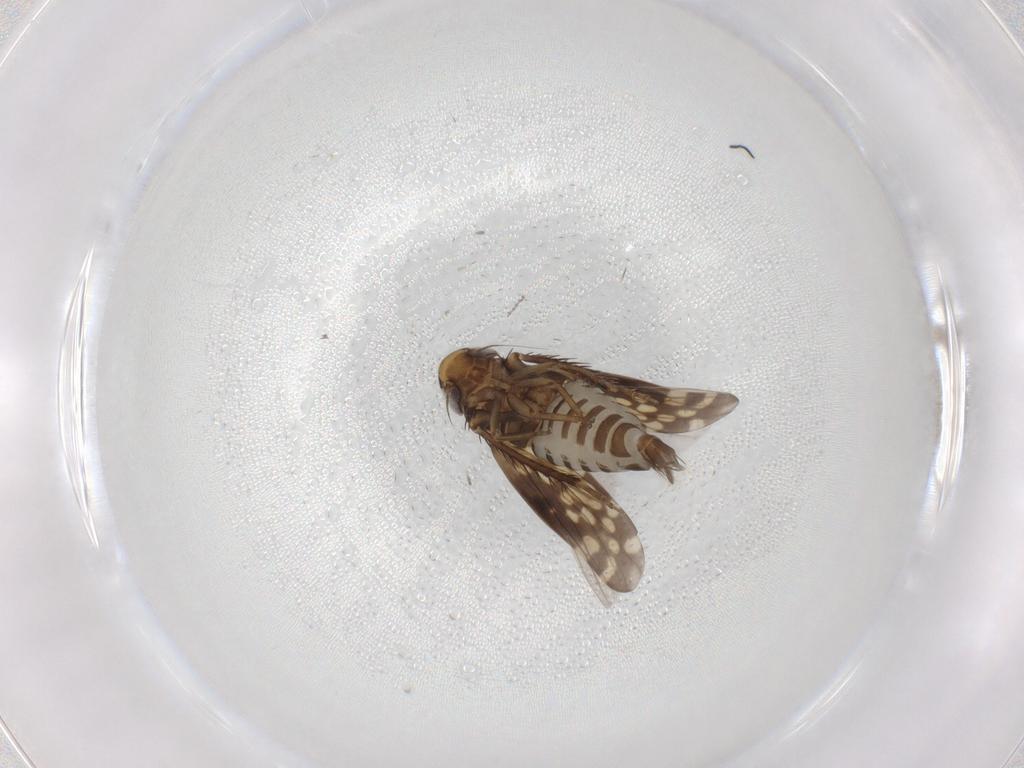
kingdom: Animalia
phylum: Arthropoda
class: Insecta
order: Hemiptera
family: Cicadellidae
